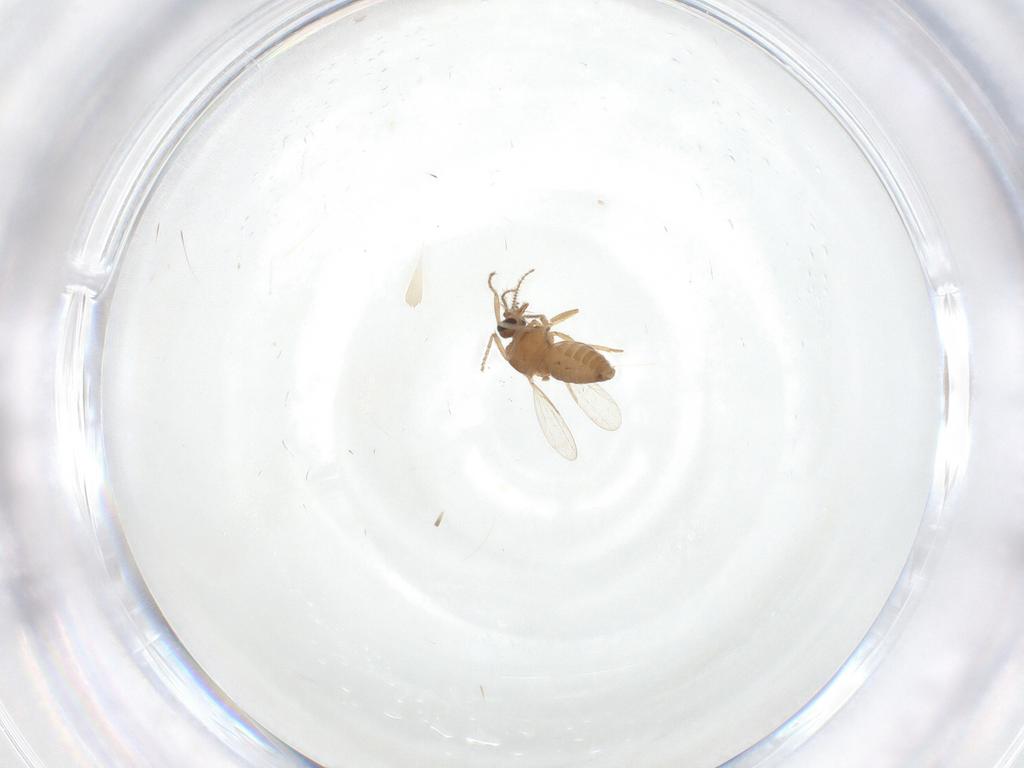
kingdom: Animalia
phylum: Arthropoda
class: Insecta
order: Diptera
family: Ceratopogonidae
